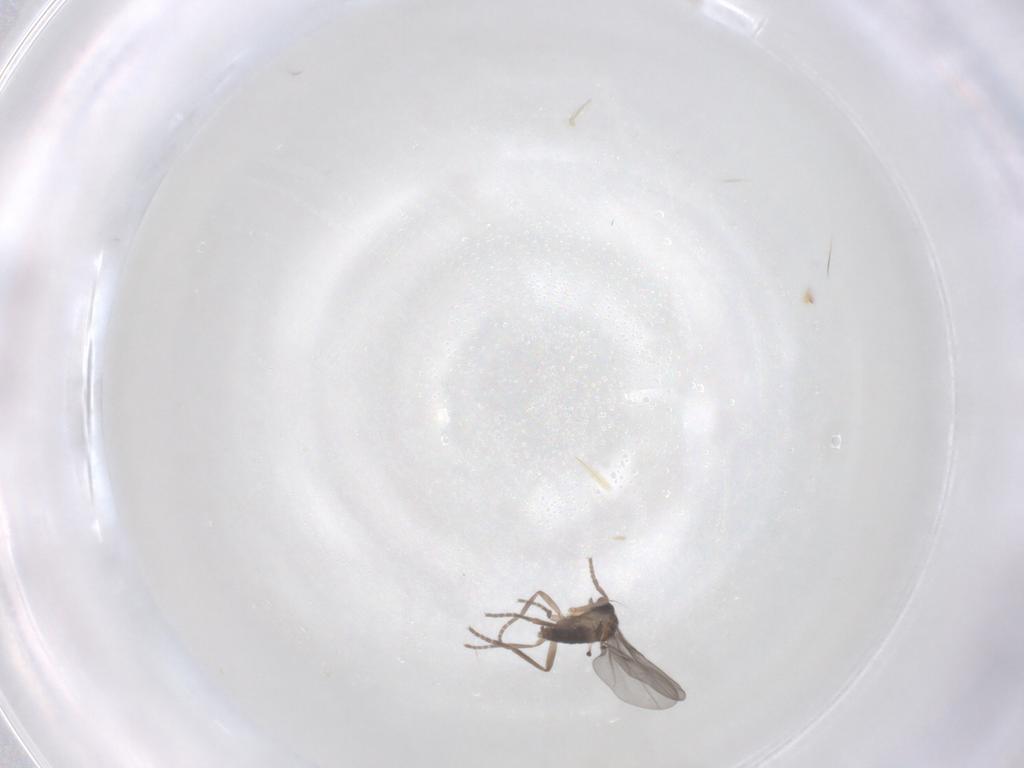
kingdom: Animalia
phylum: Arthropoda
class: Insecta
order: Diptera
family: Phoridae
